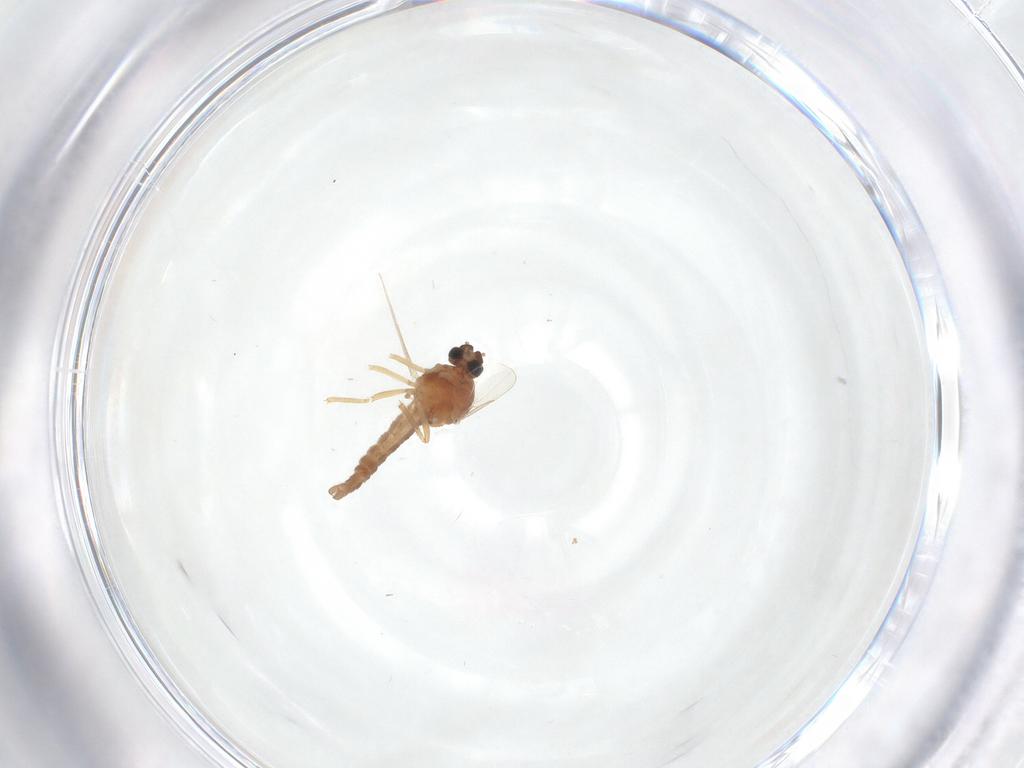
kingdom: Animalia
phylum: Arthropoda
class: Insecta
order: Diptera
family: Ceratopogonidae
